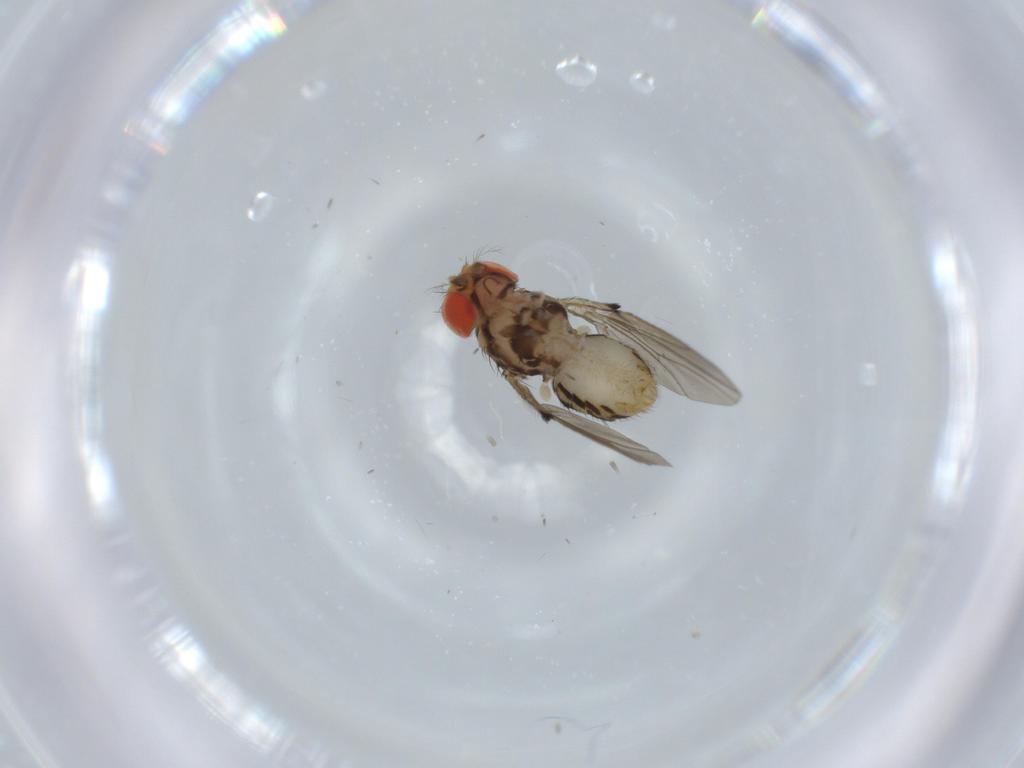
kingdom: Animalia
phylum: Arthropoda
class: Insecta
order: Diptera
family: Drosophilidae
